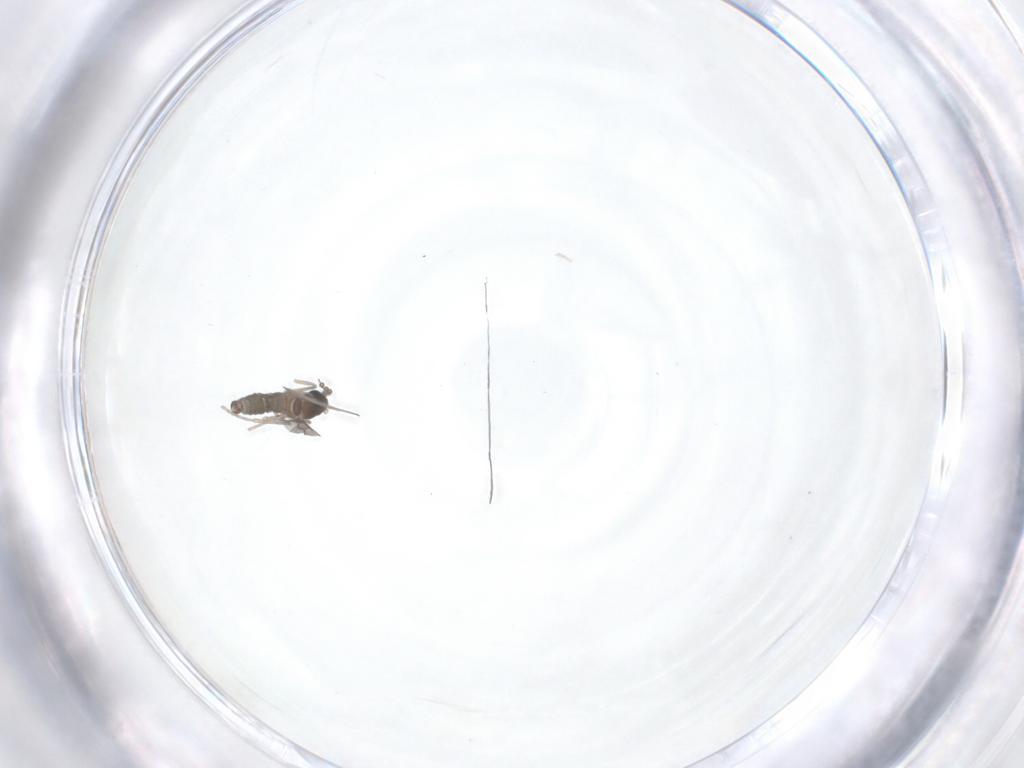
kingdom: Animalia
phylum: Arthropoda
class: Insecta
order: Diptera
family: Cecidomyiidae
